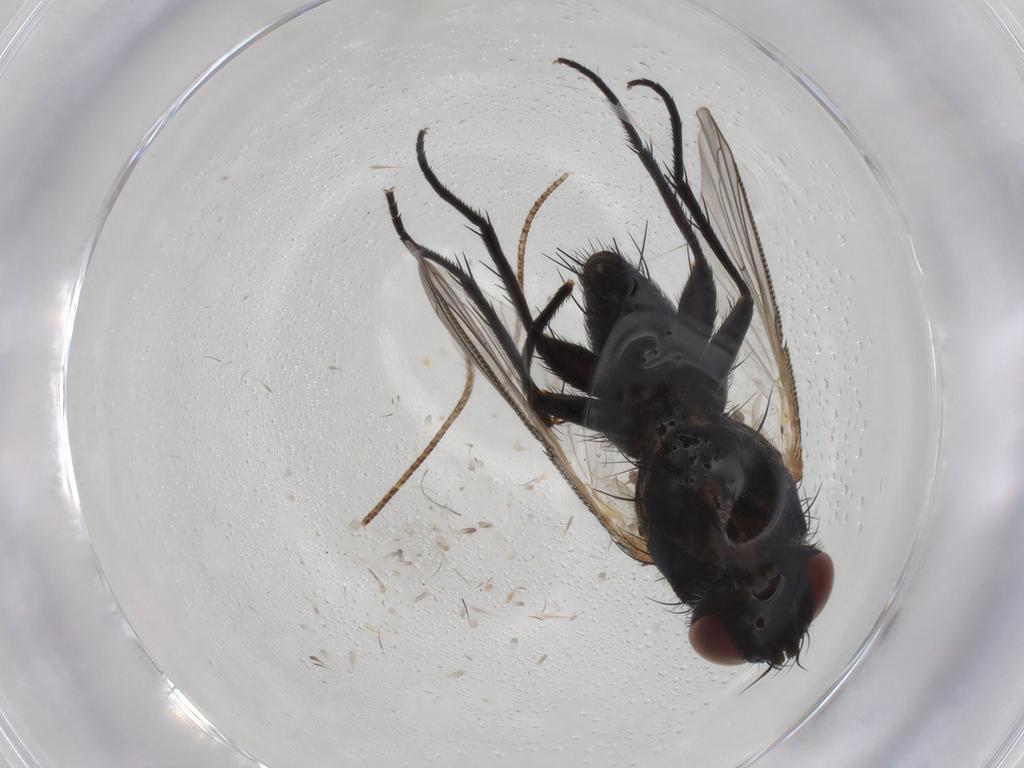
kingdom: Animalia
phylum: Arthropoda
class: Insecta
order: Diptera
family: Tachinidae
